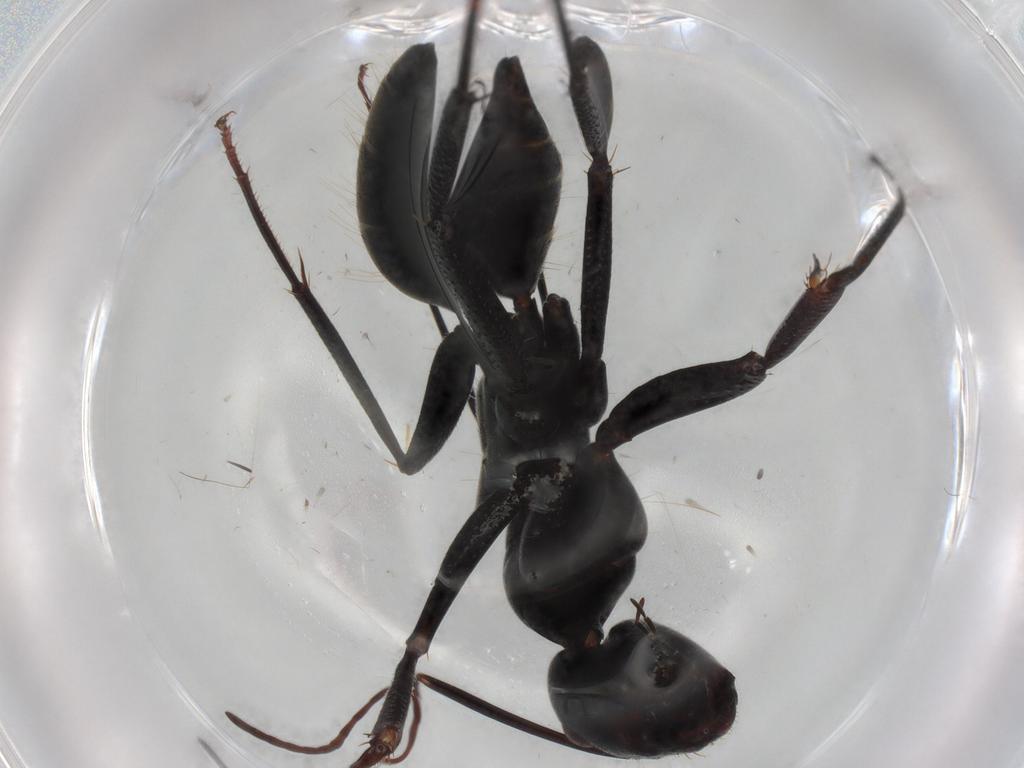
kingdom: Animalia
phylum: Arthropoda
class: Insecta
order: Hymenoptera
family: Formicidae
